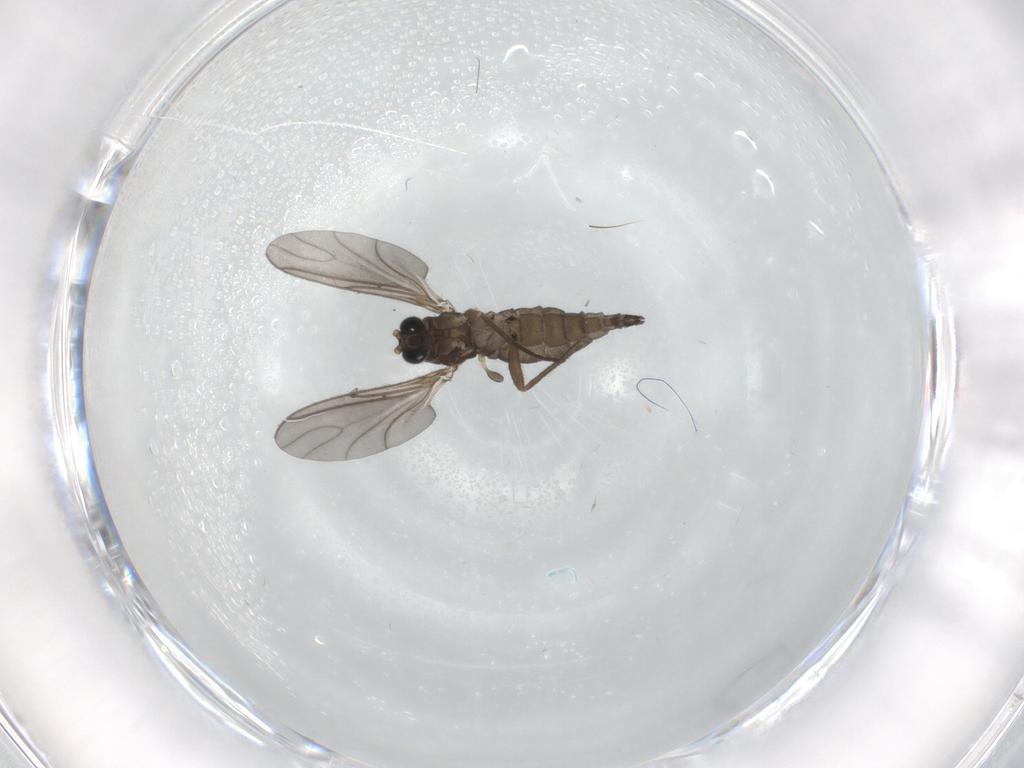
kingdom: Animalia
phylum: Arthropoda
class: Insecta
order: Diptera
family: Cecidomyiidae
